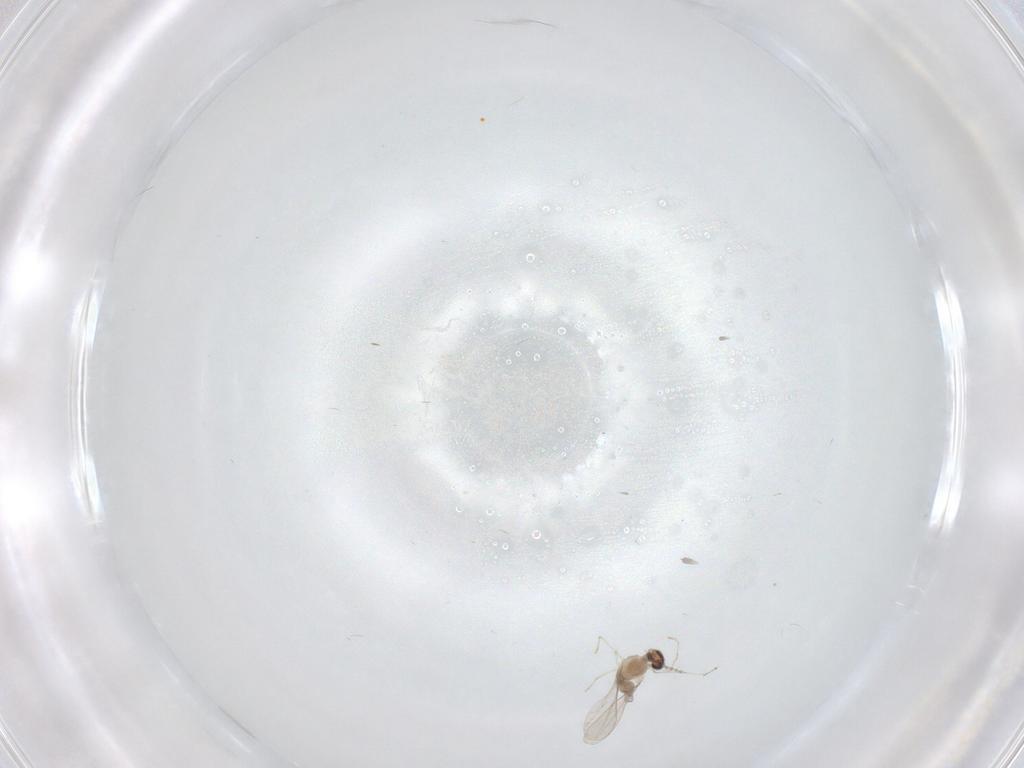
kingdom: Animalia
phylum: Arthropoda
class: Insecta
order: Diptera
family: Cecidomyiidae
